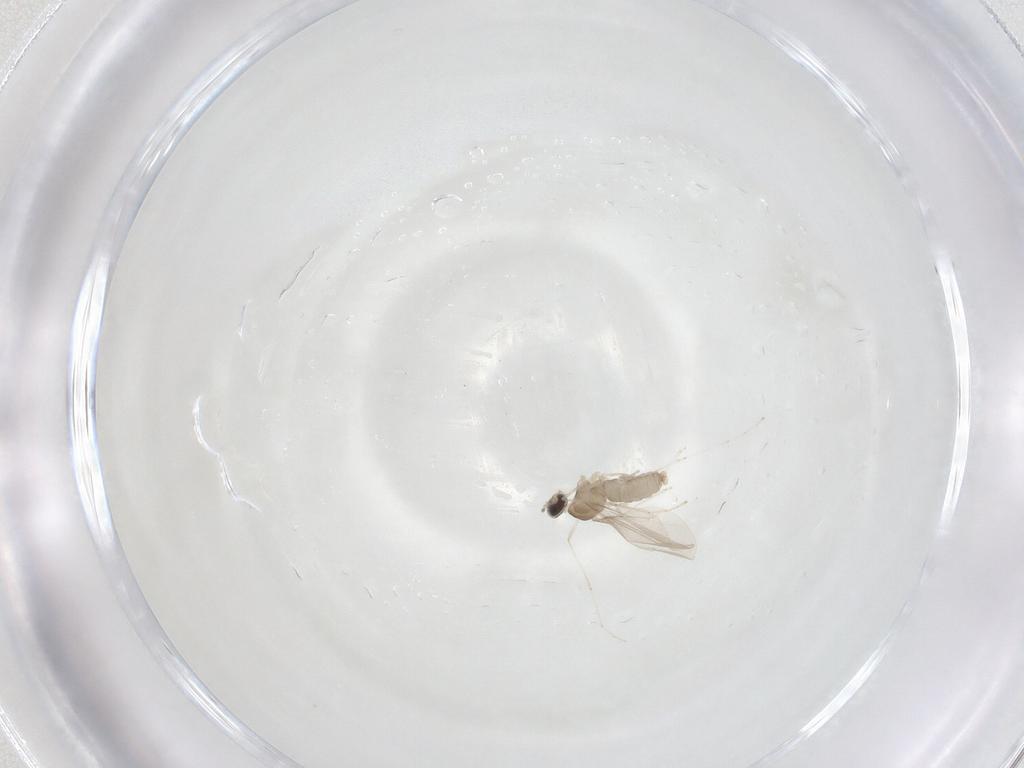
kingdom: Animalia
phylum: Arthropoda
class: Insecta
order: Diptera
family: Cecidomyiidae
